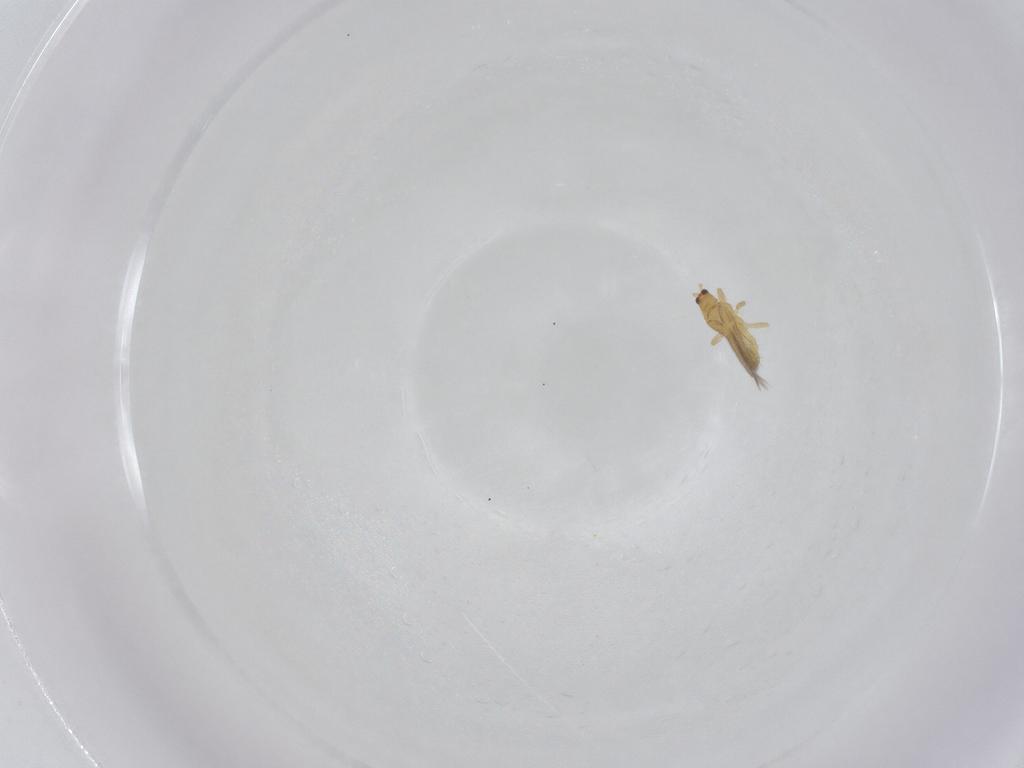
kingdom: Animalia
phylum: Arthropoda
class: Insecta
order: Thysanoptera
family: Thripidae
